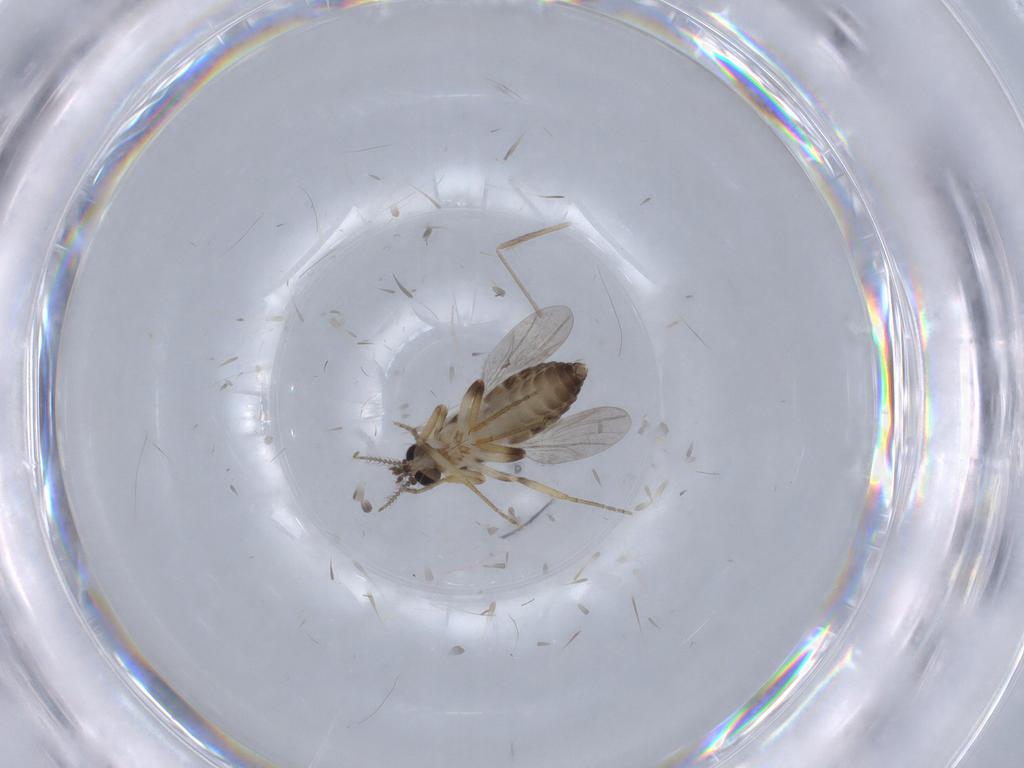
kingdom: Animalia
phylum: Arthropoda
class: Insecta
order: Diptera
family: Ceratopogonidae
